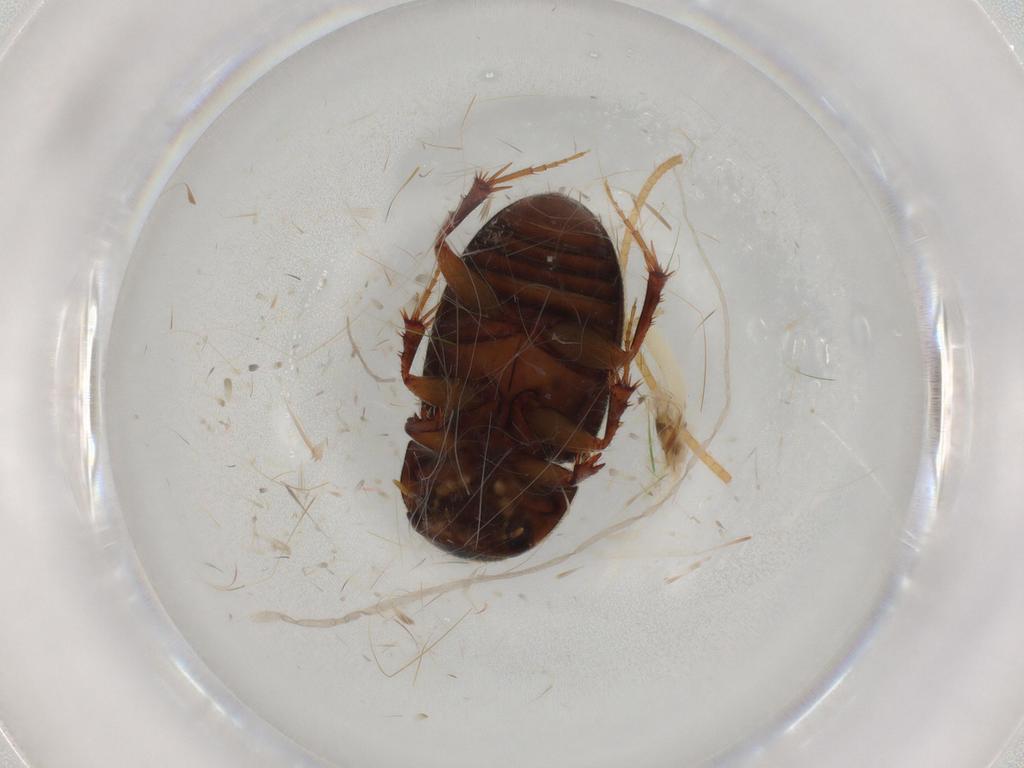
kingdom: Animalia
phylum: Arthropoda
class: Insecta
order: Coleoptera
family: Scarabaeidae
